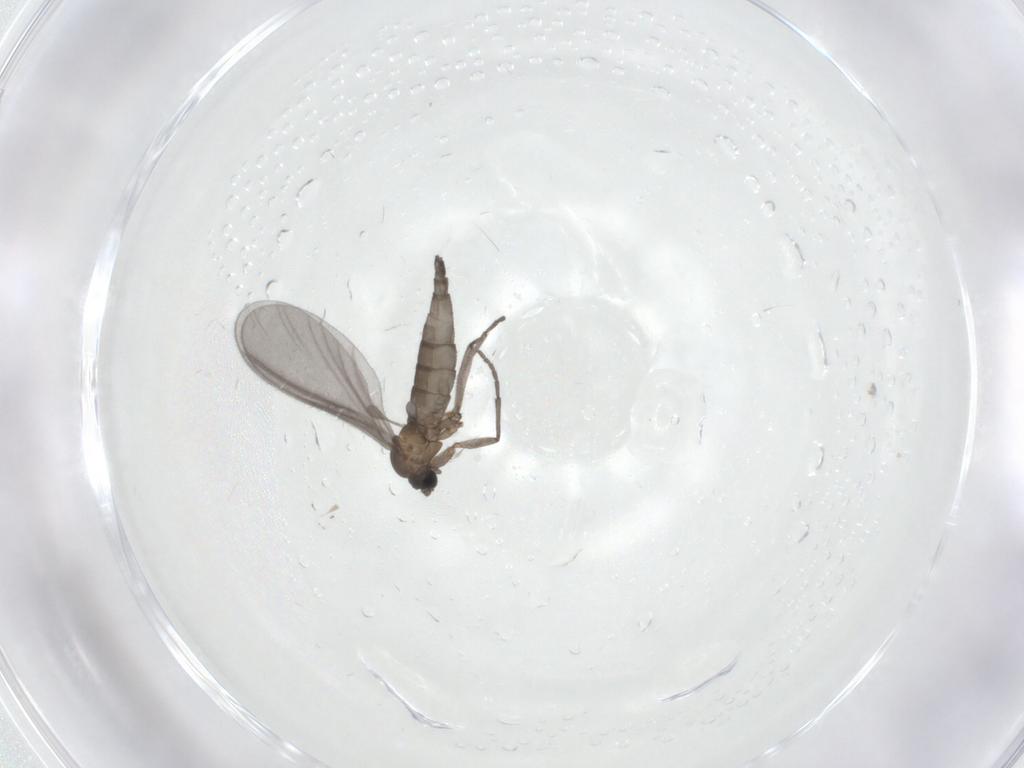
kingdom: Animalia
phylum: Arthropoda
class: Insecta
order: Diptera
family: Sciaridae
